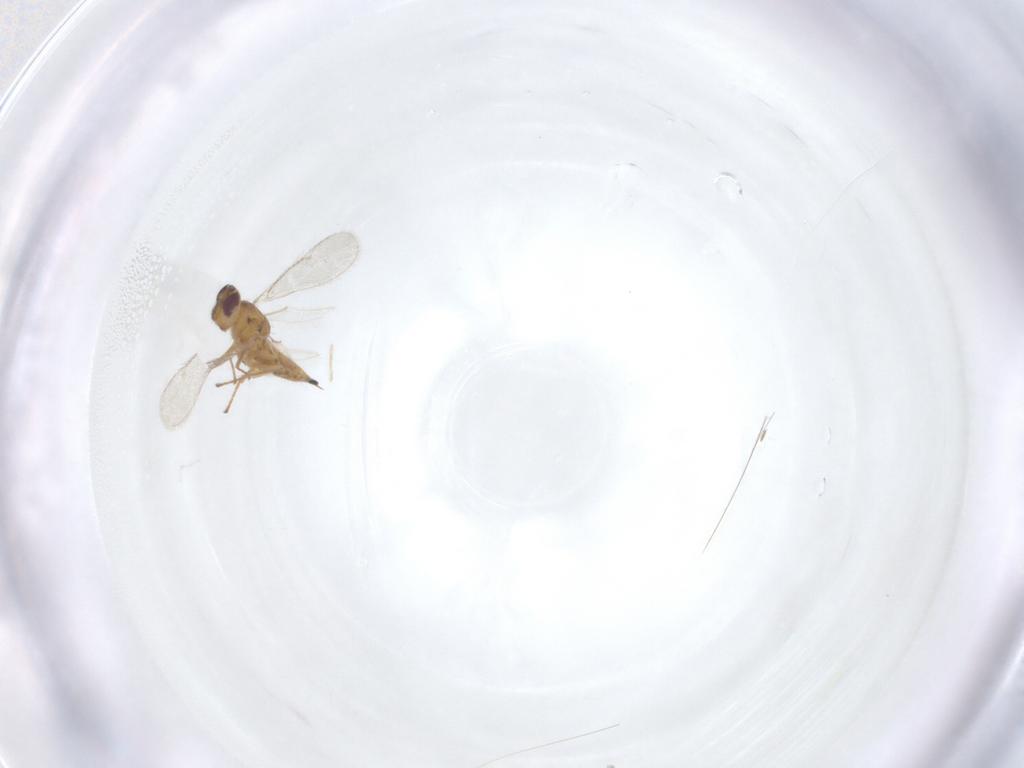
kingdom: Animalia
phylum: Arthropoda
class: Insecta
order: Hymenoptera
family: Eulophidae
